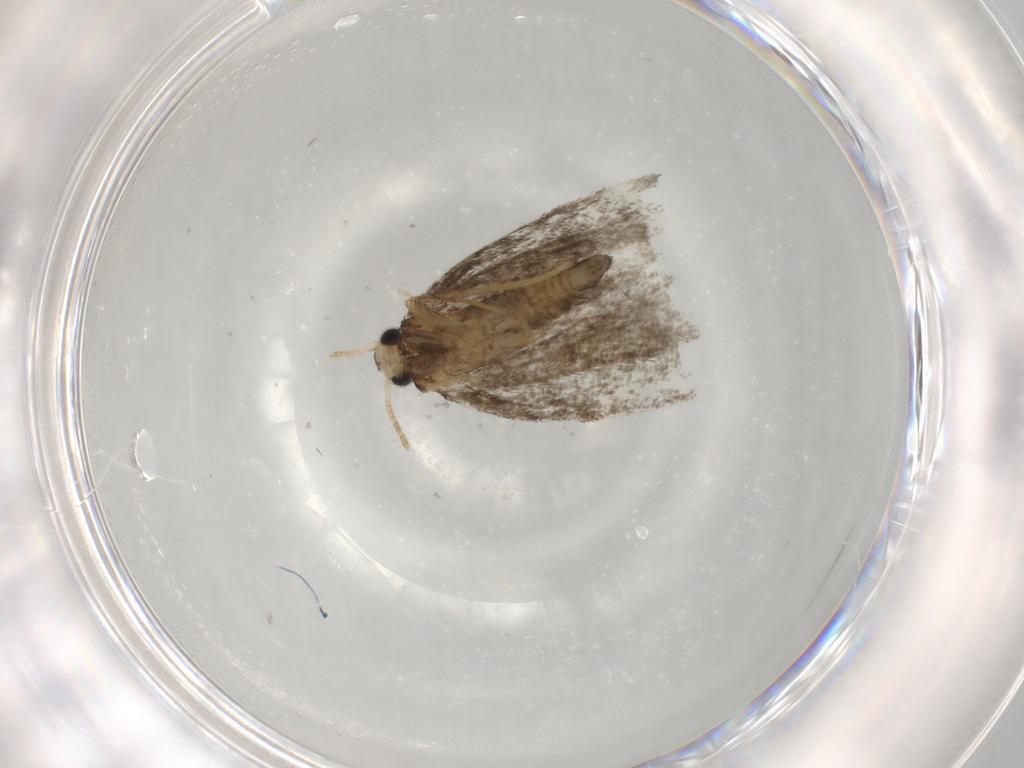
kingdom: Animalia
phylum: Arthropoda
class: Insecta
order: Lepidoptera
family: Psychidae
